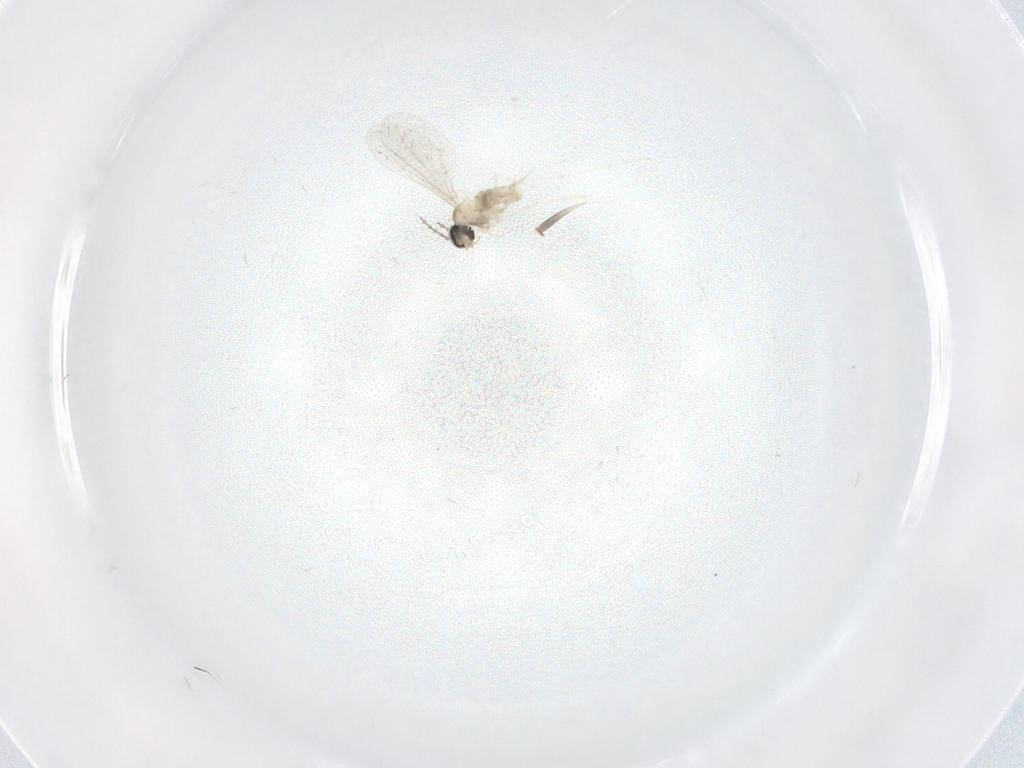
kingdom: Animalia
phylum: Arthropoda
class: Insecta
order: Diptera
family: Cecidomyiidae
